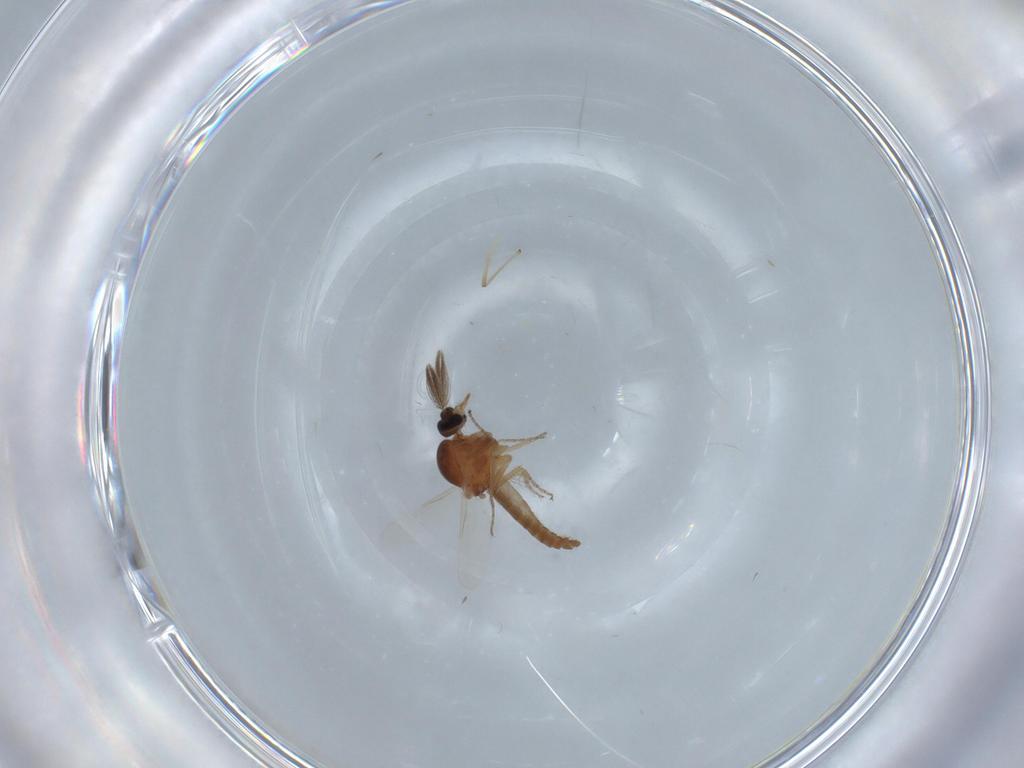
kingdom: Animalia
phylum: Arthropoda
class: Insecta
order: Diptera
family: Ceratopogonidae
